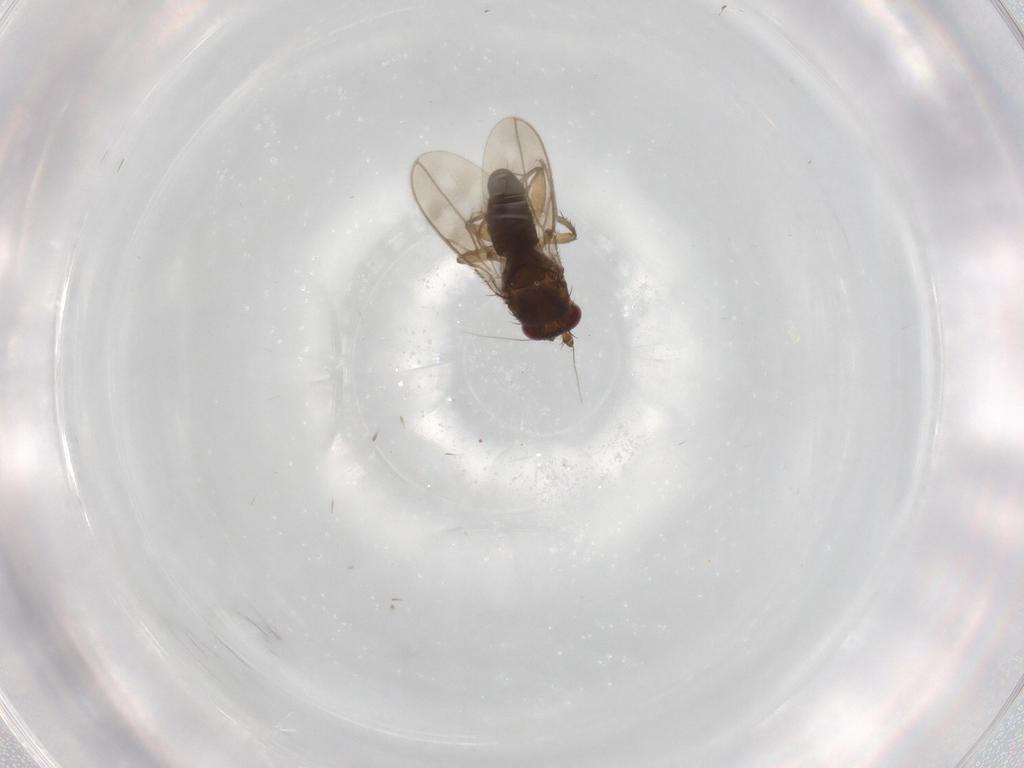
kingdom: Animalia
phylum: Arthropoda
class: Insecta
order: Diptera
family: Sphaeroceridae
